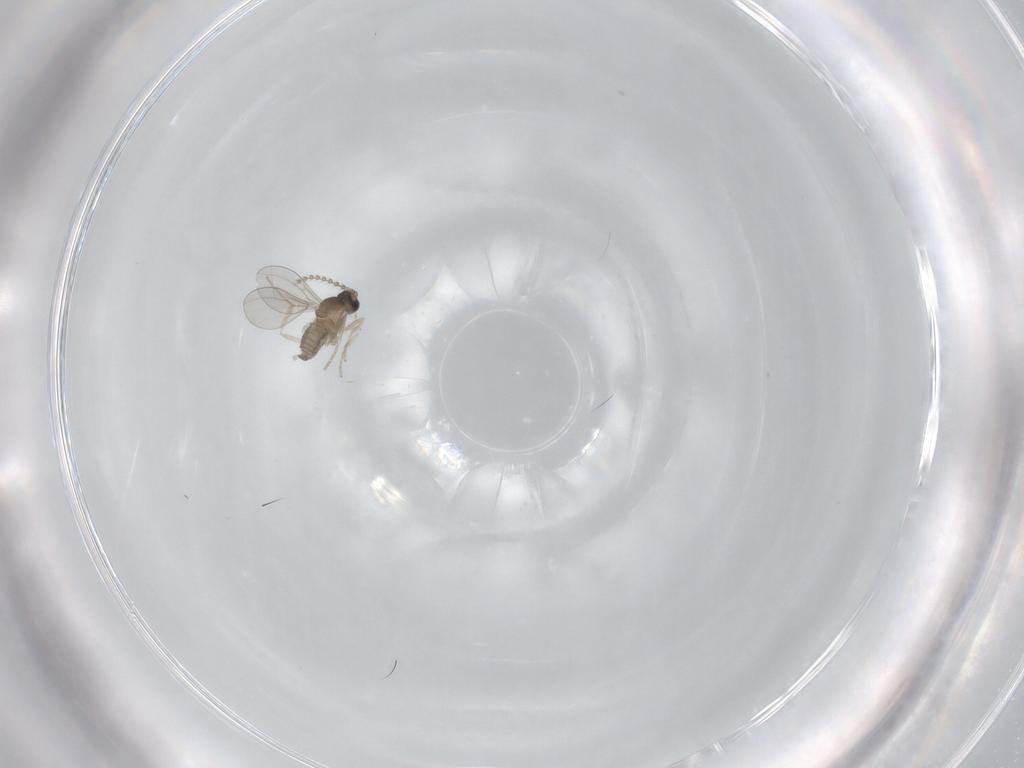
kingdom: Animalia
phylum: Arthropoda
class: Insecta
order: Diptera
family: Cecidomyiidae
